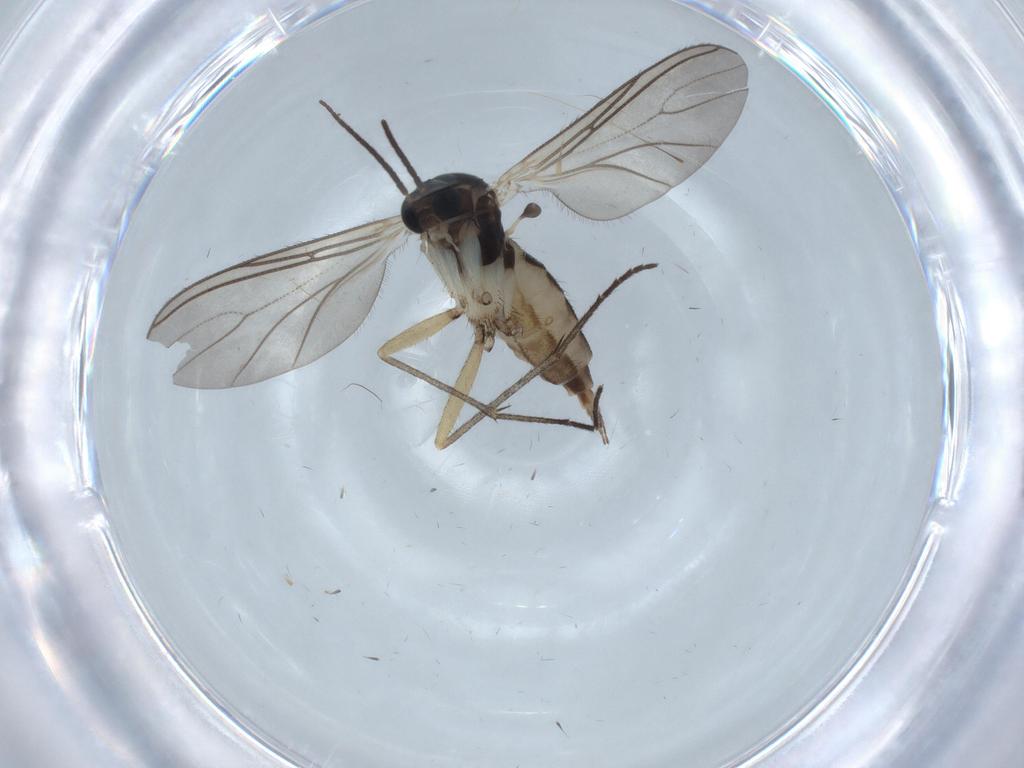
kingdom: Animalia
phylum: Arthropoda
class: Insecta
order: Diptera
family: Sciaridae
